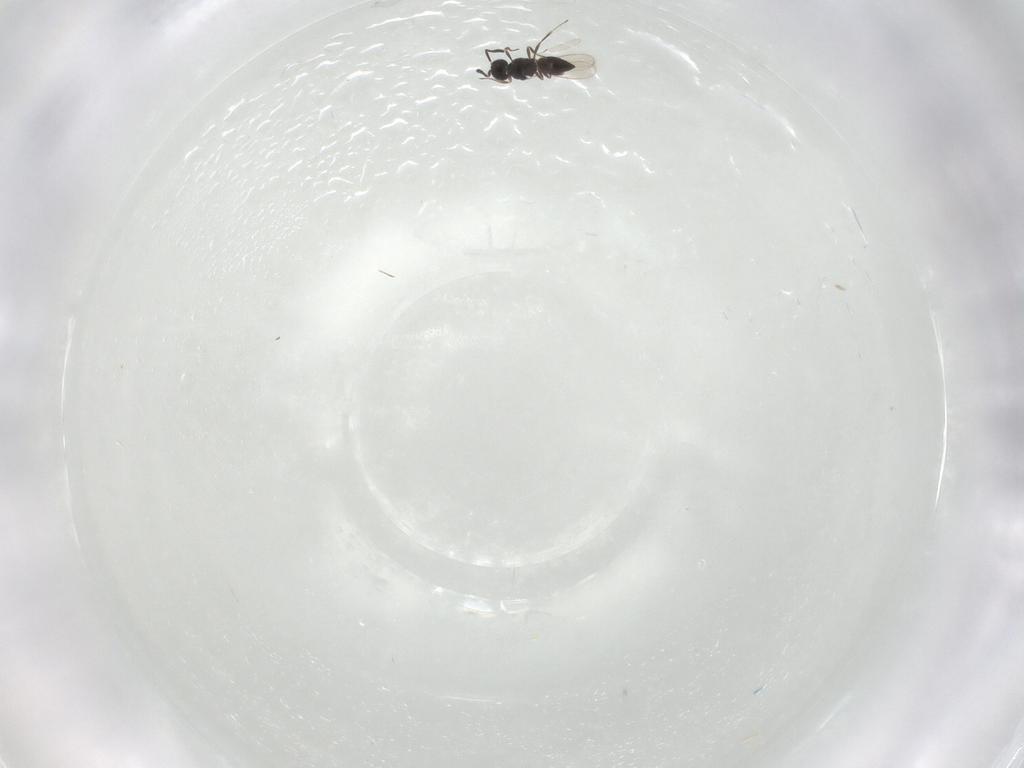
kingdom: Animalia
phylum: Arthropoda
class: Insecta
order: Hymenoptera
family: Scelionidae
